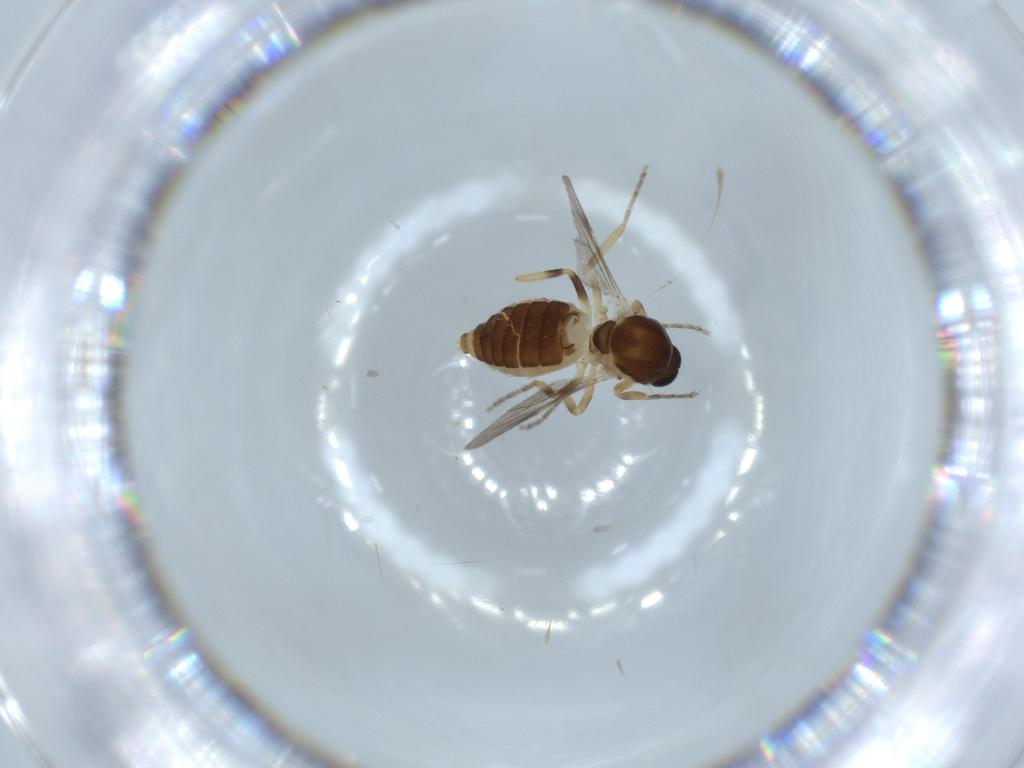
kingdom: Animalia
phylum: Arthropoda
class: Insecta
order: Diptera
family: Ceratopogonidae
